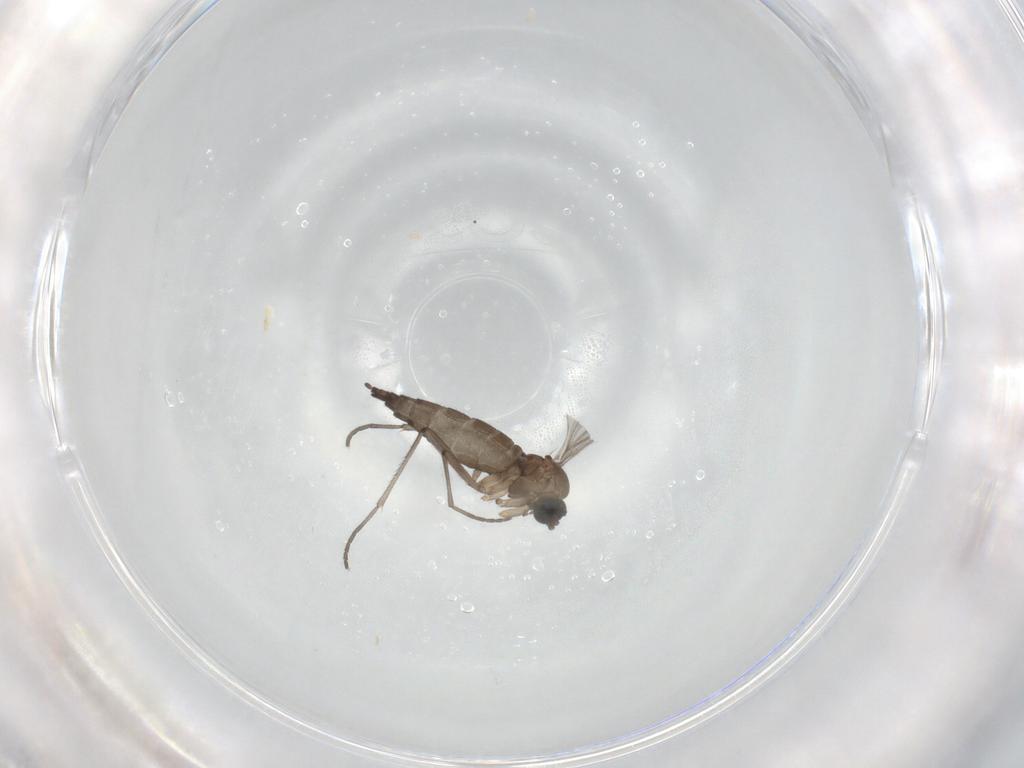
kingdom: Animalia
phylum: Arthropoda
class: Insecta
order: Diptera
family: Sciaridae
